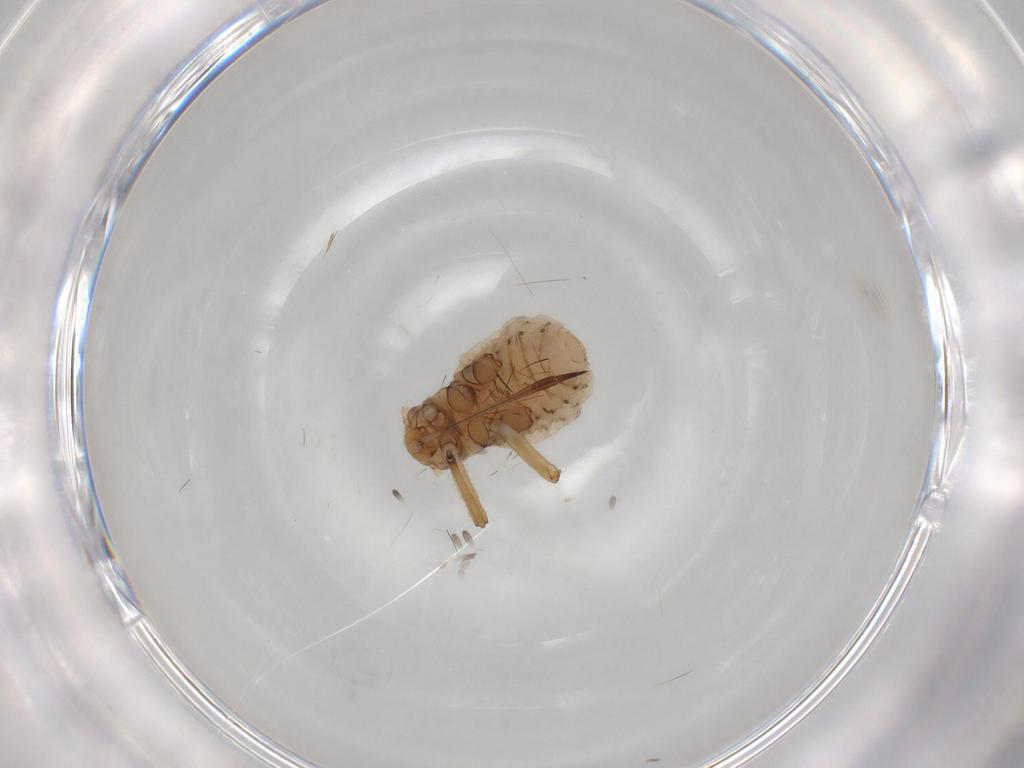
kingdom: Animalia
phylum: Arthropoda
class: Insecta
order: Hemiptera
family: Aphididae
